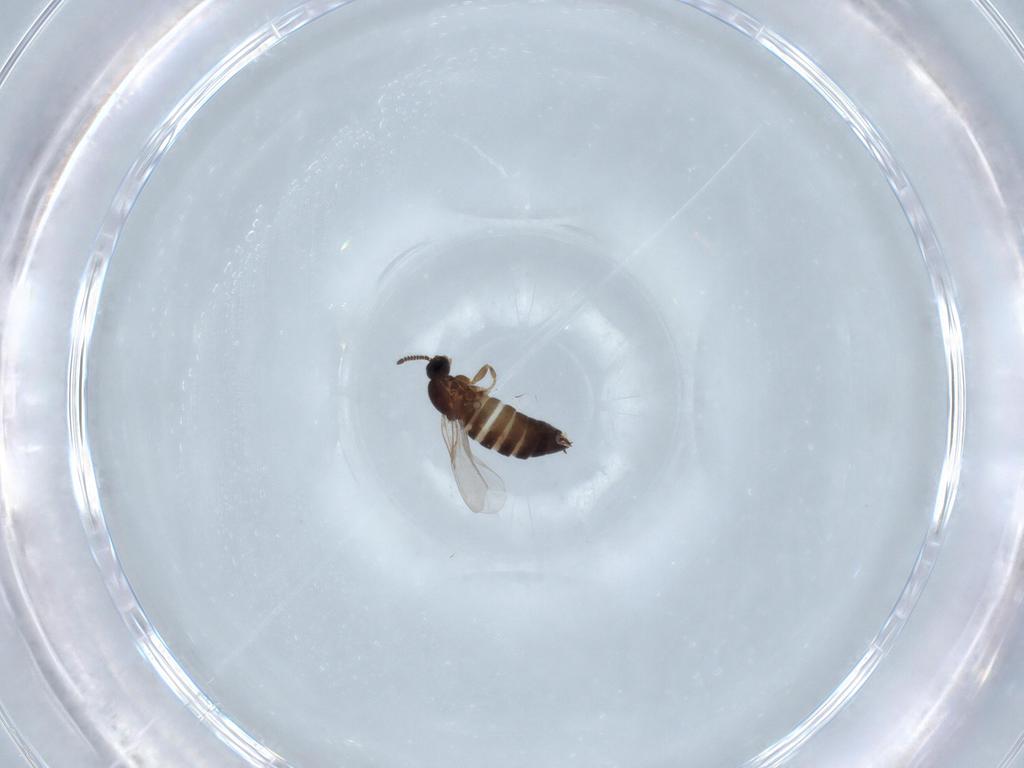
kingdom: Animalia
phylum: Arthropoda
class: Insecta
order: Diptera
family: Scatopsidae
